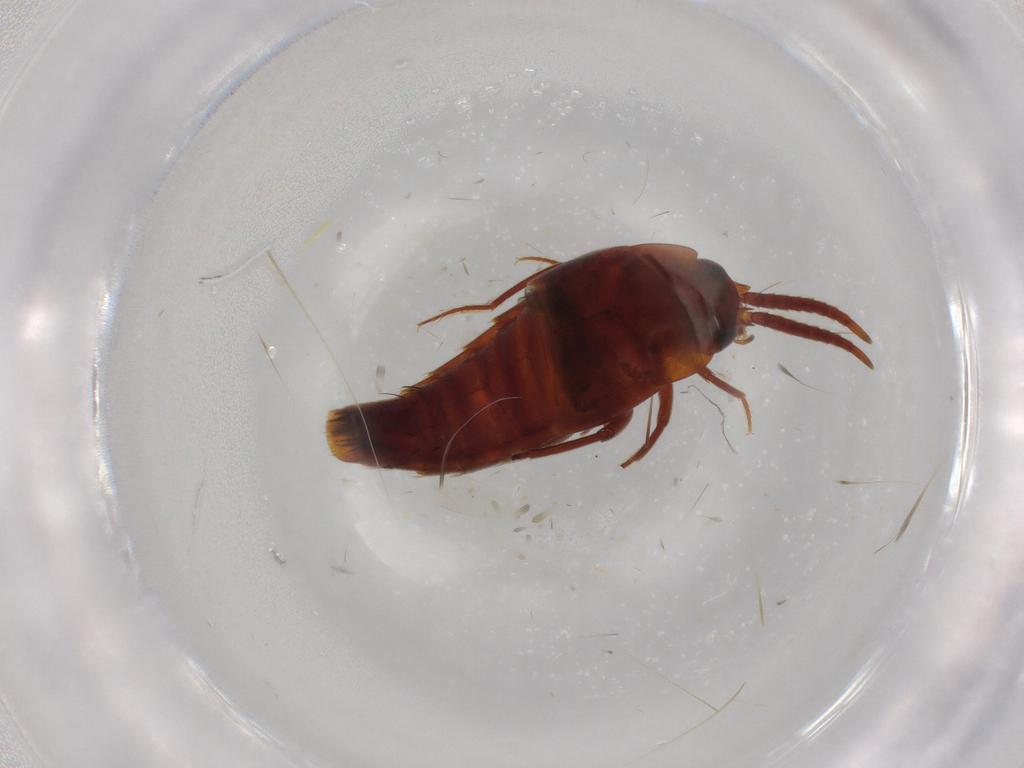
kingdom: Animalia
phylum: Arthropoda
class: Insecta
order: Coleoptera
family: Staphylinidae
